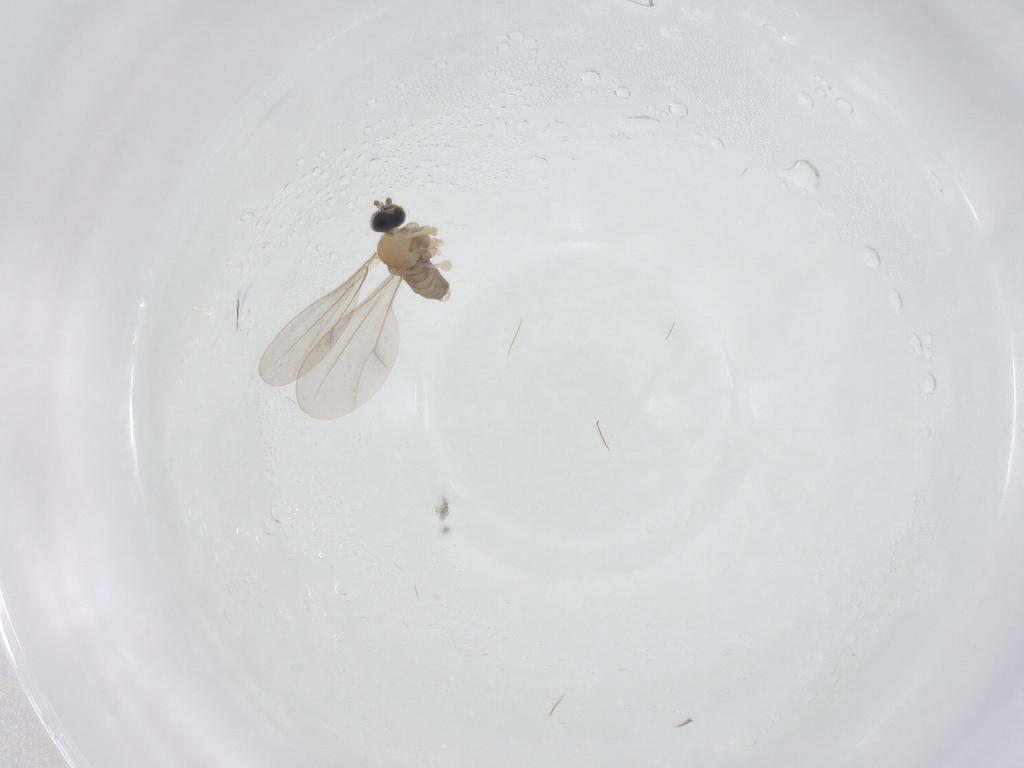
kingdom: Animalia
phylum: Arthropoda
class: Insecta
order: Diptera
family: Cecidomyiidae
